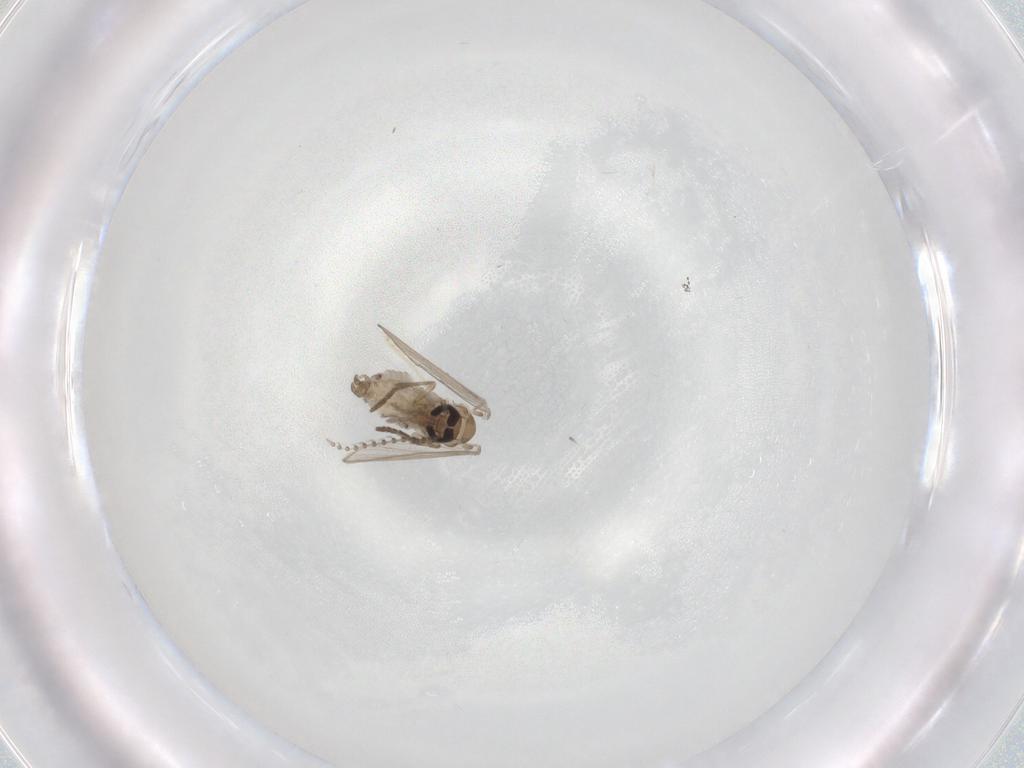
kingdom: Animalia
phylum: Arthropoda
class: Insecta
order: Diptera
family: Psychodidae
